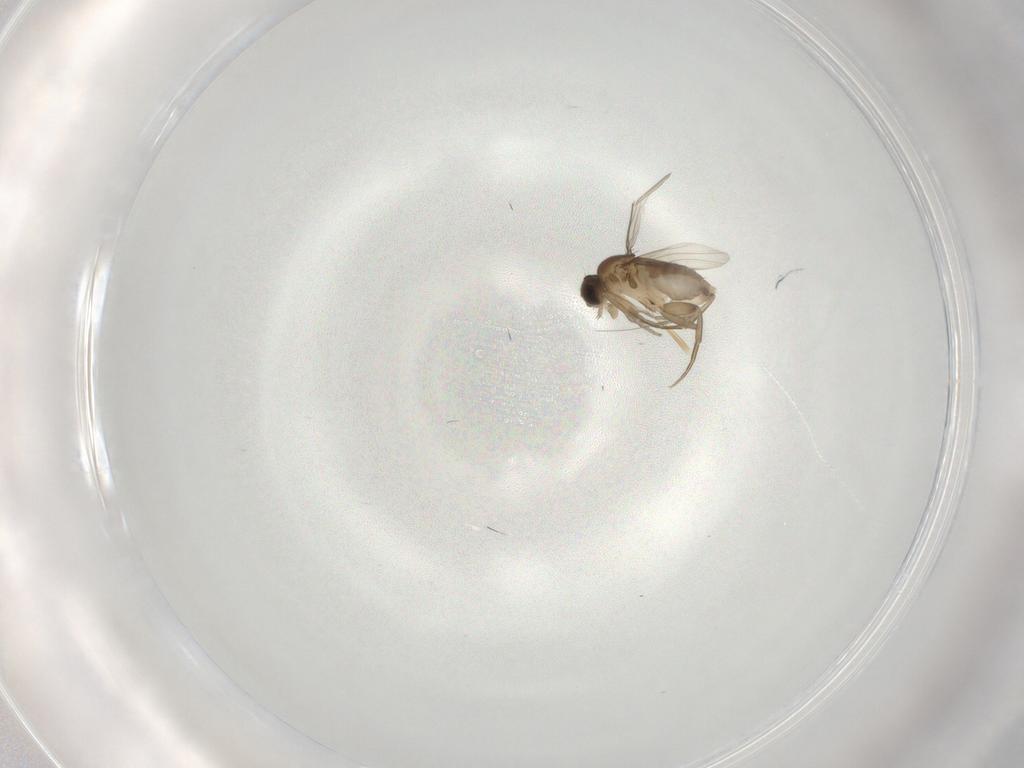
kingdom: Animalia
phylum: Arthropoda
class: Insecta
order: Diptera
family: Phoridae
